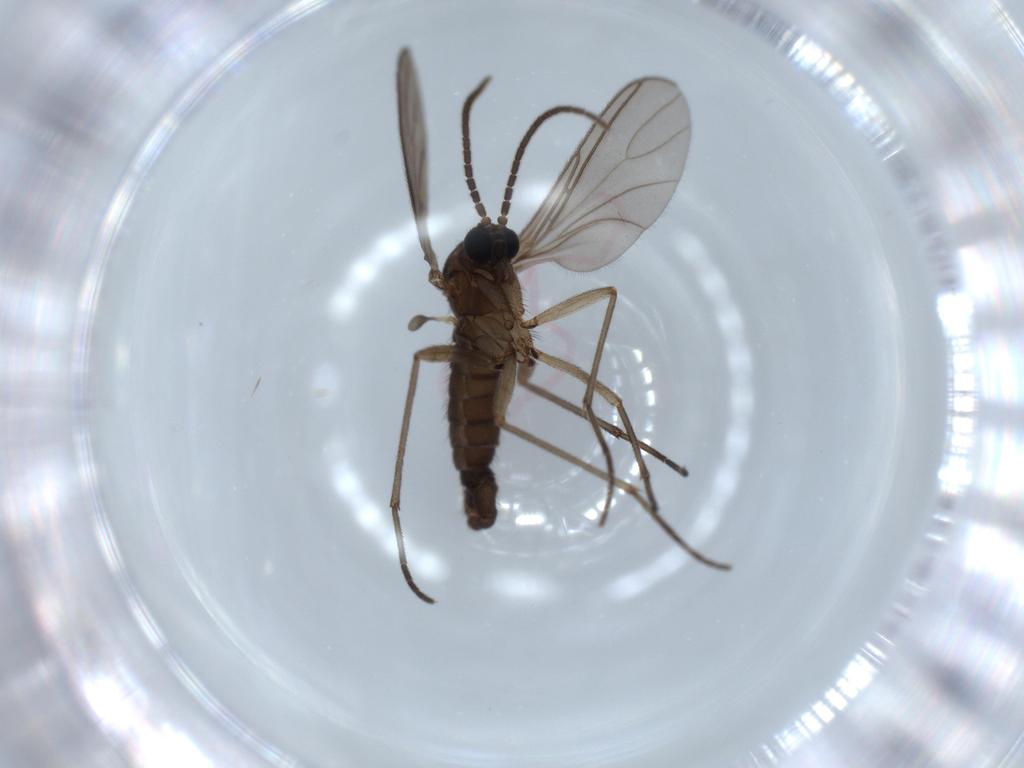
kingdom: Animalia
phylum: Arthropoda
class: Insecta
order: Diptera
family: Sciaridae
